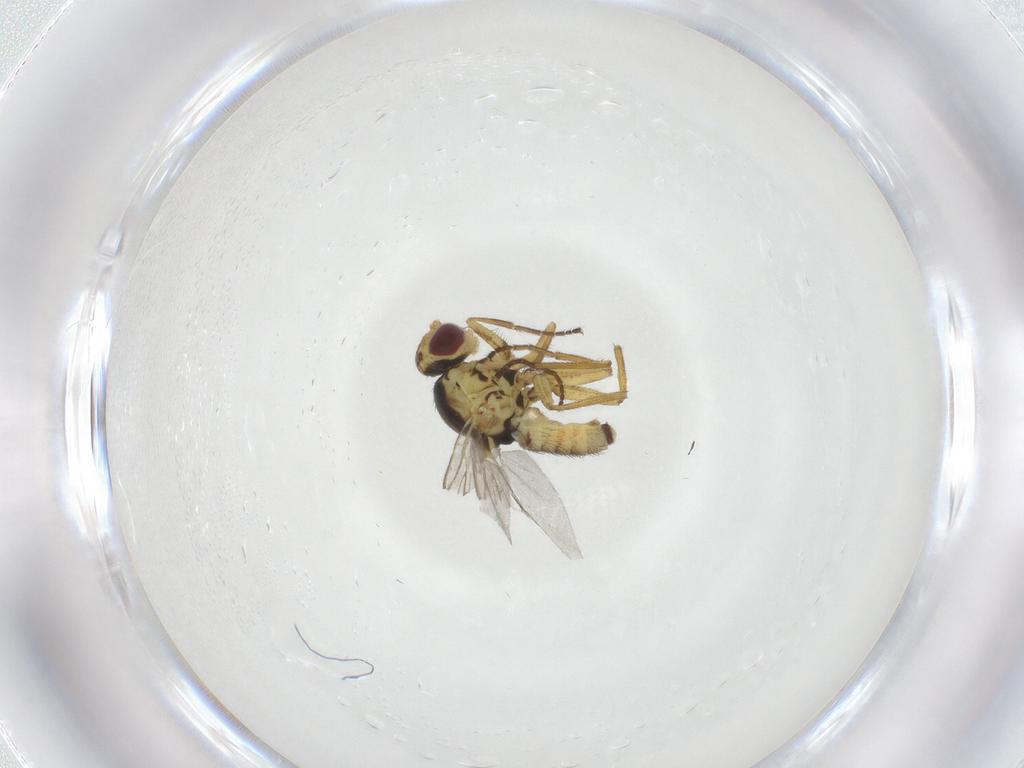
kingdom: Animalia
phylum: Arthropoda
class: Insecta
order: Diptera
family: Agromyzidae
